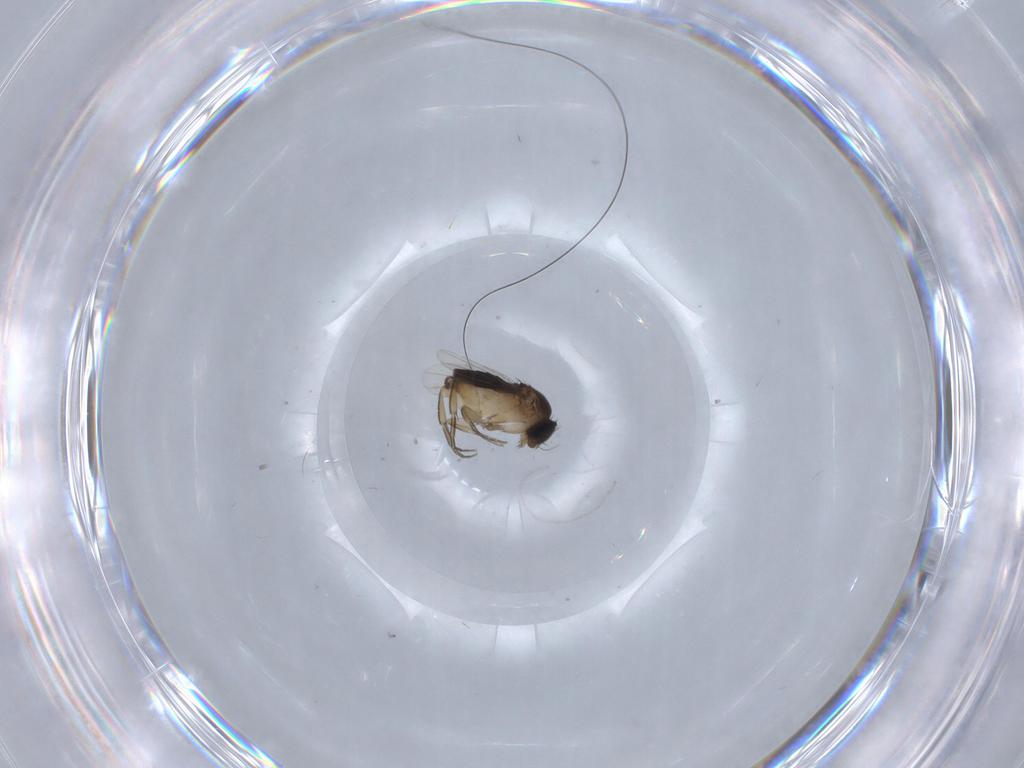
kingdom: Animalia
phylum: Arthropoda
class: Insecta
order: Diptera
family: Phoridae
